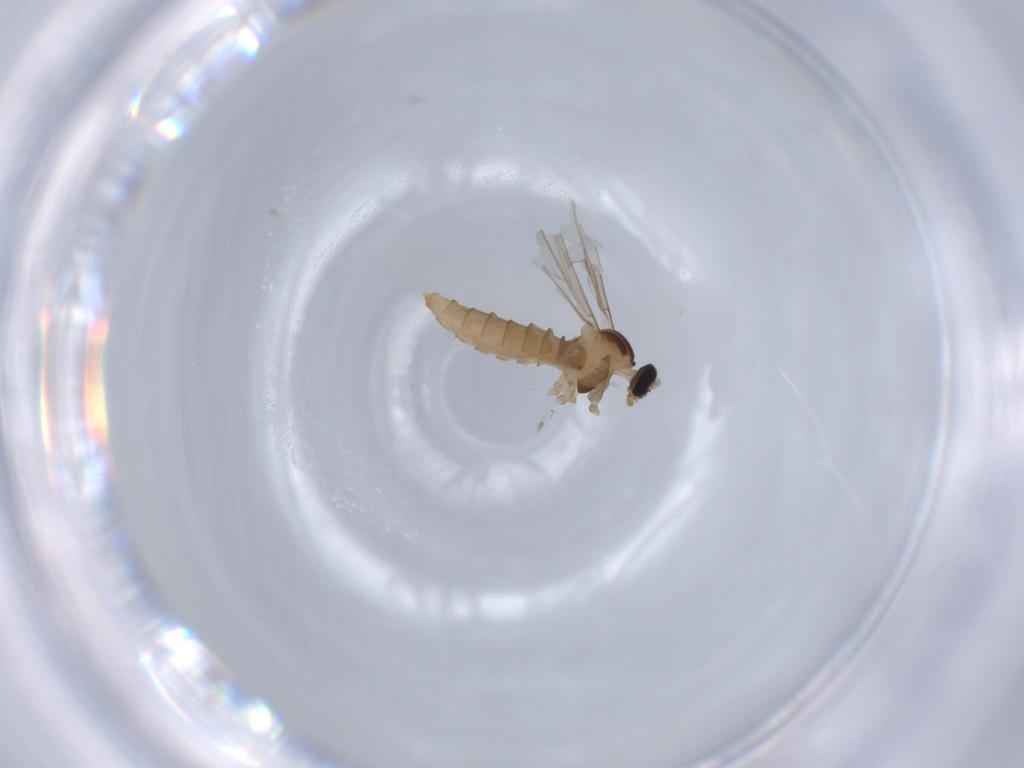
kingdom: Animalia
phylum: Arthropoda
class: Insecta
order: Diptera
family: Cecidomyiidae
